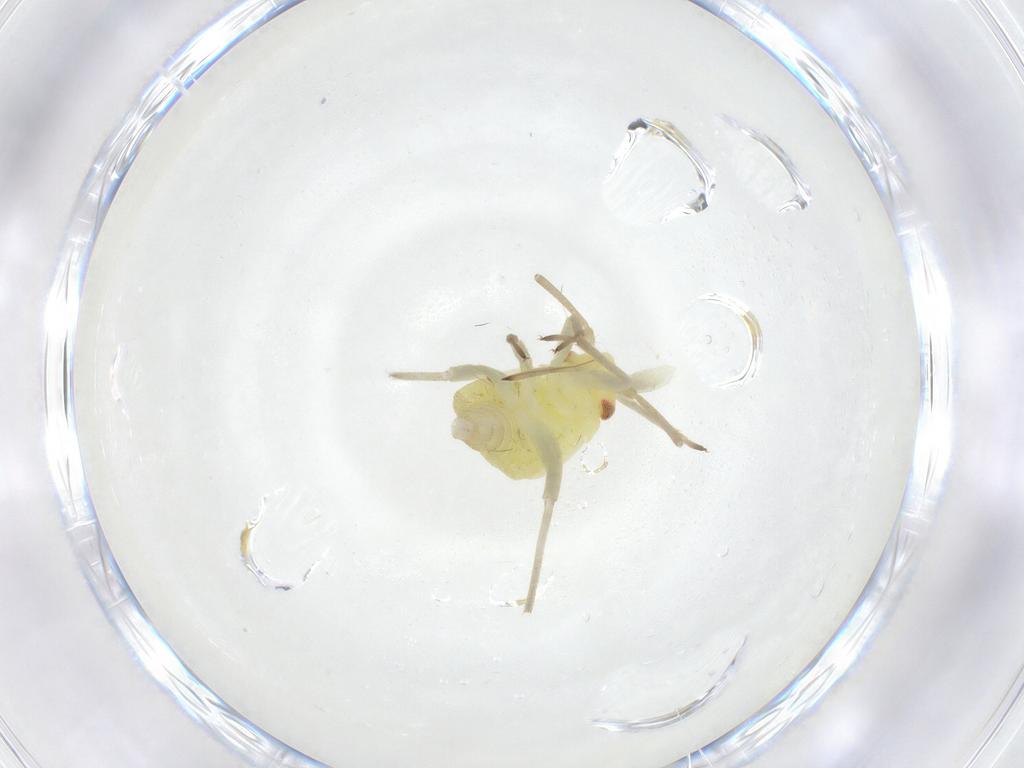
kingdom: Animalia
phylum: Arthropoda
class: Insecta
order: Hemiptera
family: Miridae
